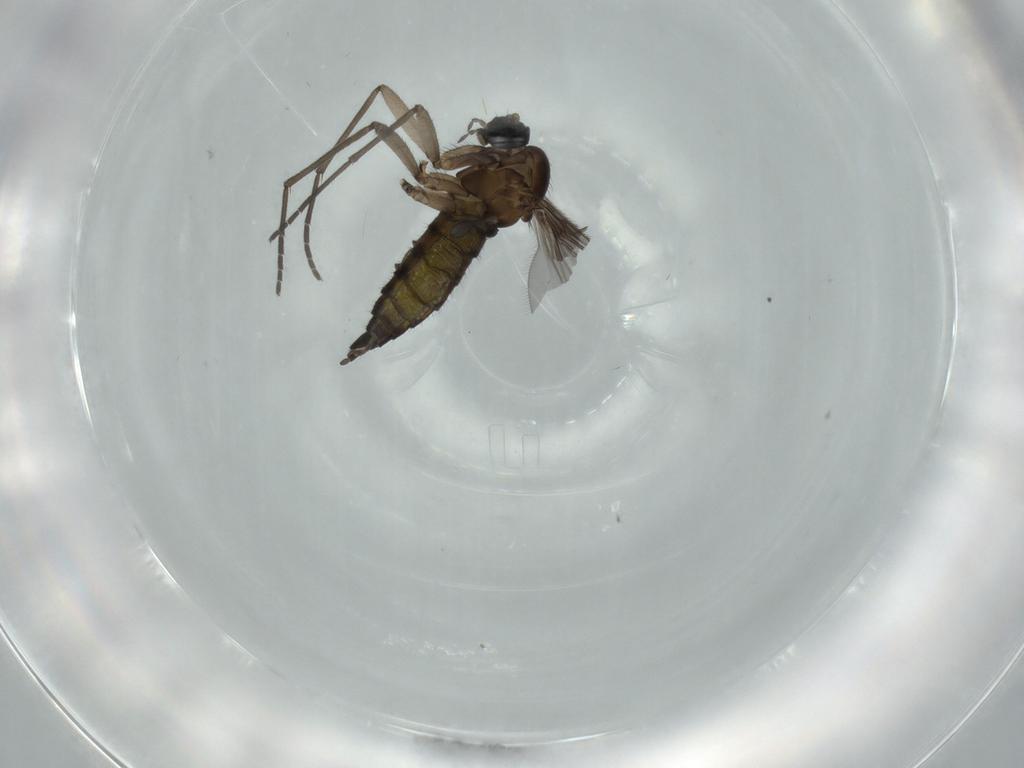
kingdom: Animalia
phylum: Arthropoda
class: Insecta
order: Diptera
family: Sciaridae
